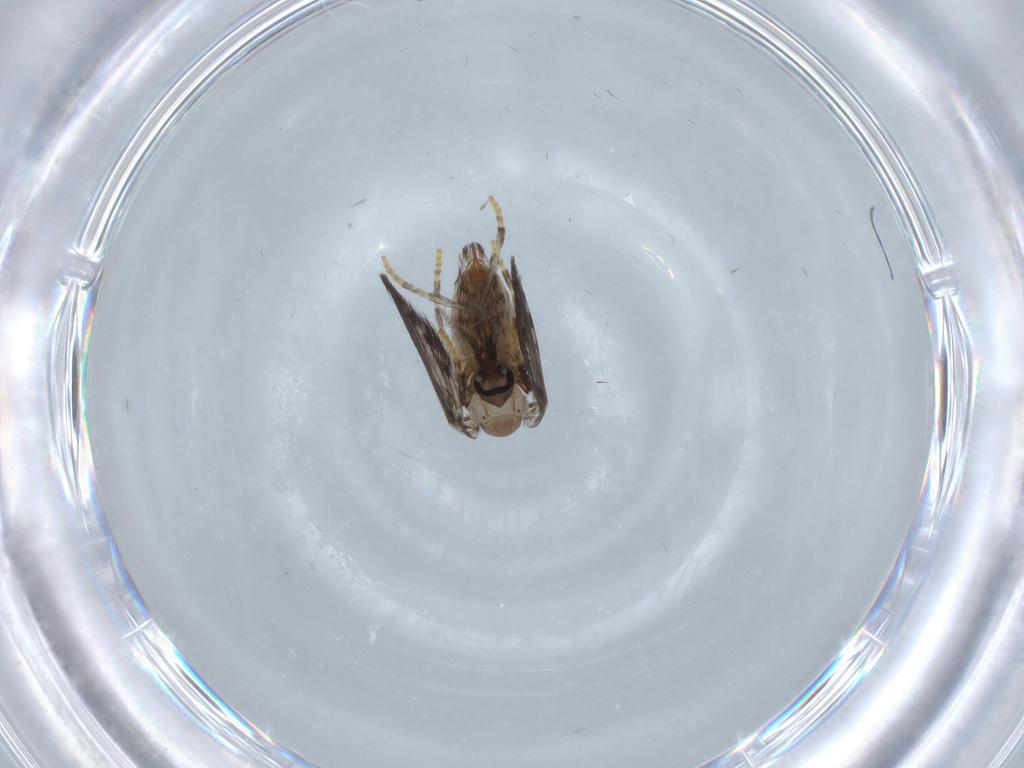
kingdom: Animalia
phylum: Arthropoda
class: Insecta
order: Diptera
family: Psychodidae
